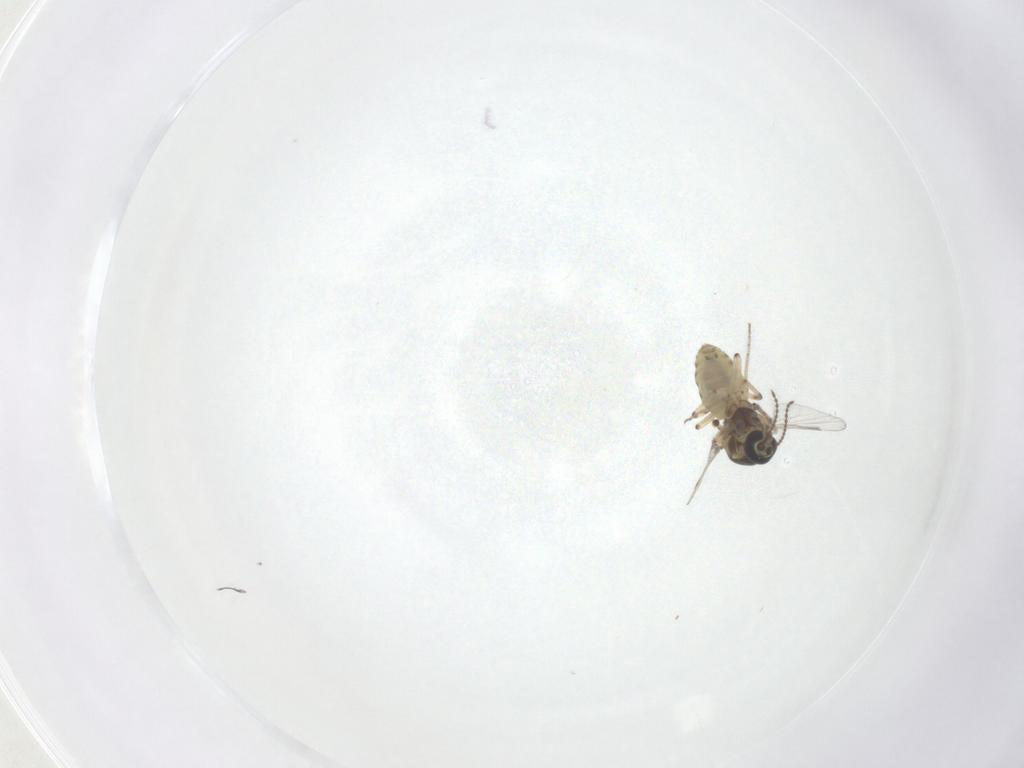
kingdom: Animalia
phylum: Arthropoda
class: Insecta
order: Diptera
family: Ceratopogonidae
